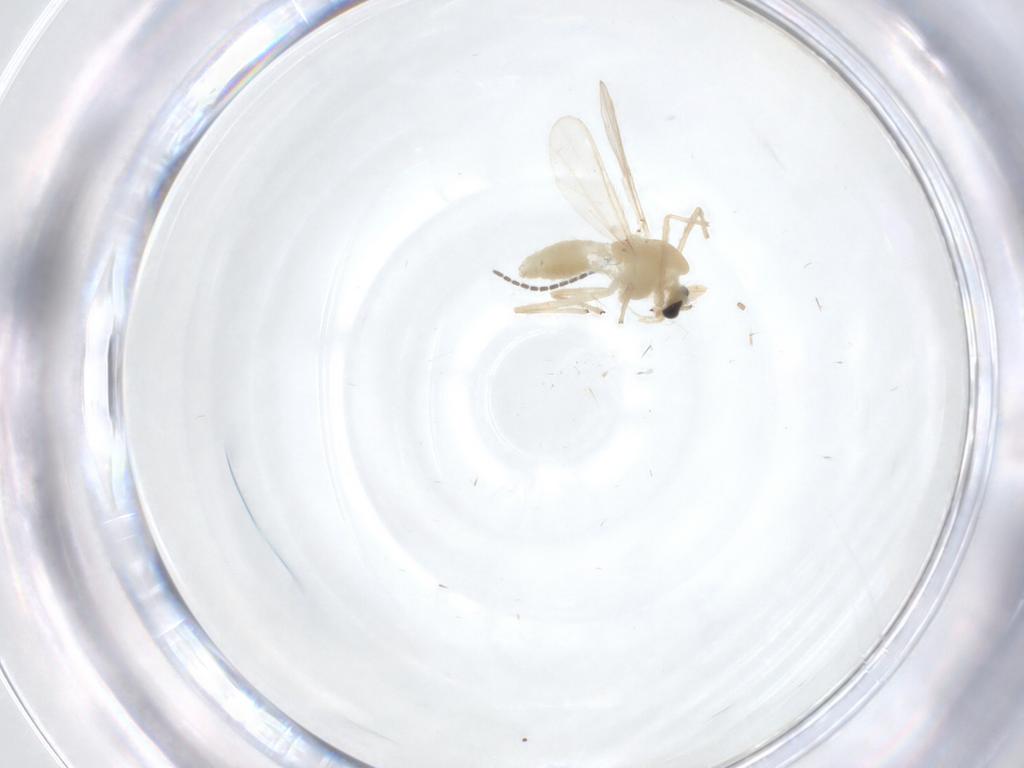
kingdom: Animalia
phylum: Arthropoda
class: Insecta
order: Diptera
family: Chironomidae
